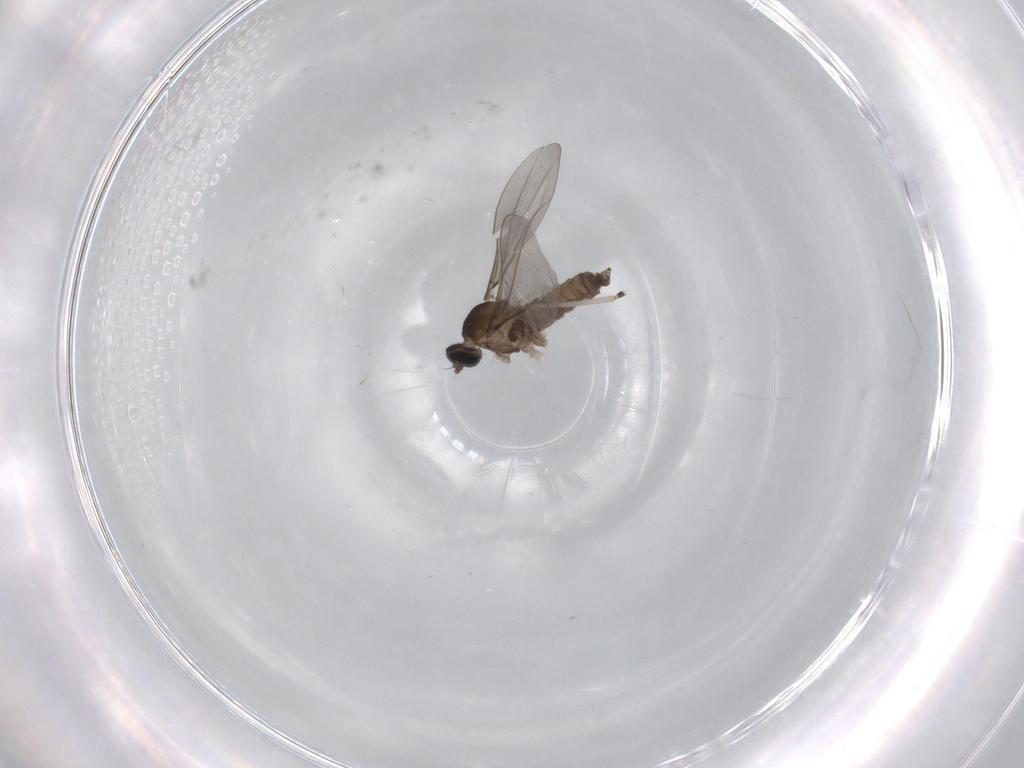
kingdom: Animalia
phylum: Arthropoda
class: Insecta
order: Diptera
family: Cecidomyiidae
